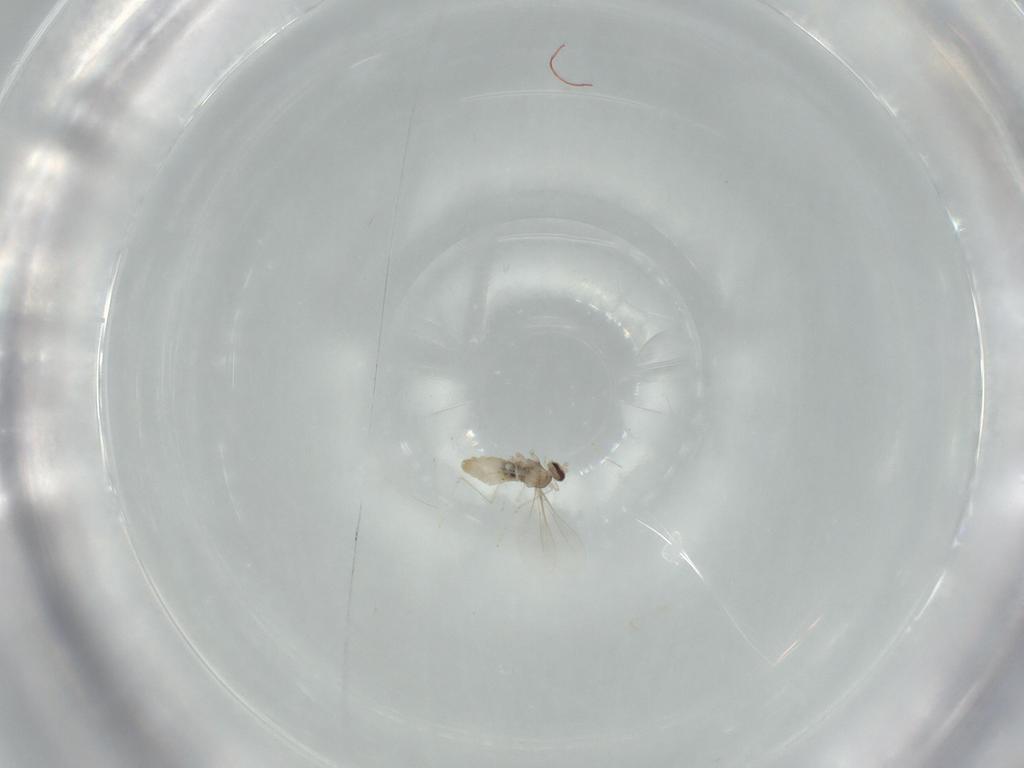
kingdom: Animalia
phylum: Arthropoda
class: Insecta
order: Diptera
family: Cecidomyiidae
